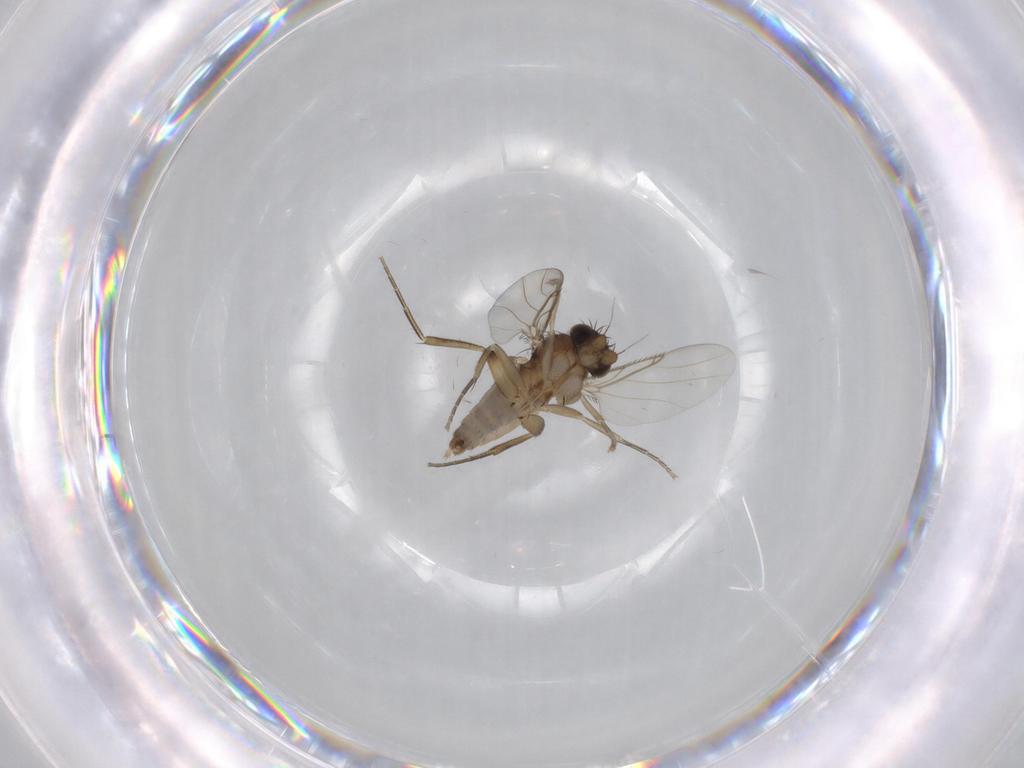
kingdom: Animalia
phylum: Arthropoda
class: Insecta
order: Diptera
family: Phoridae
